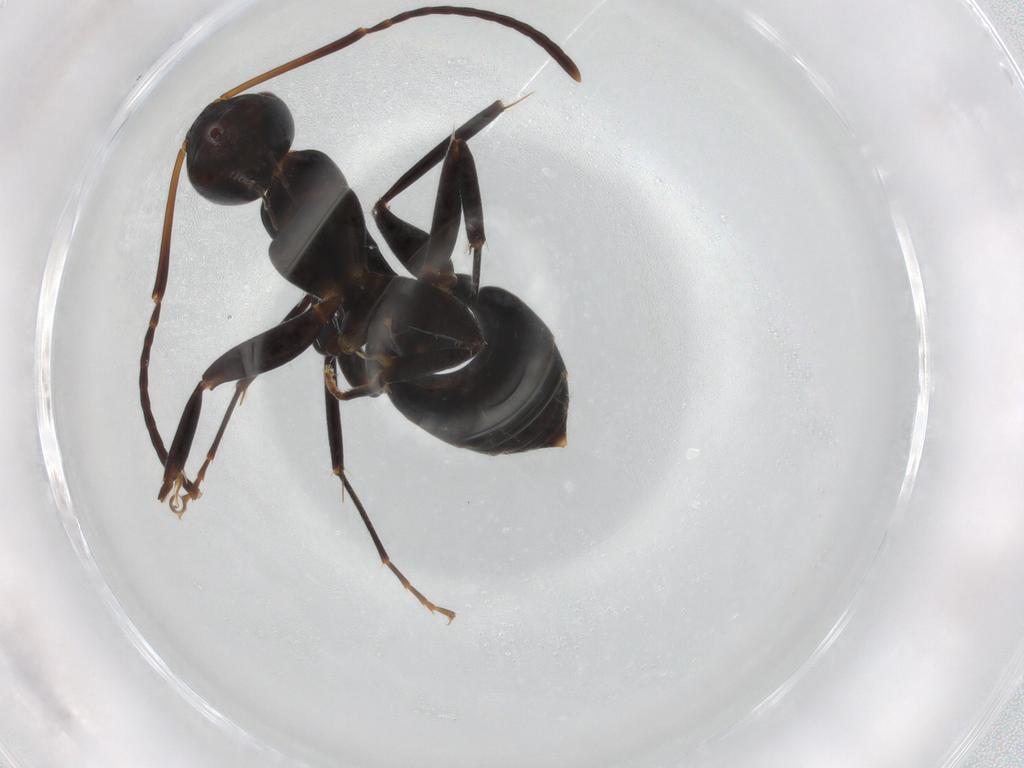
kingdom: Animalia
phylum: Arthropoda
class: Insecta
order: Hymenoptera
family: Formicidae
